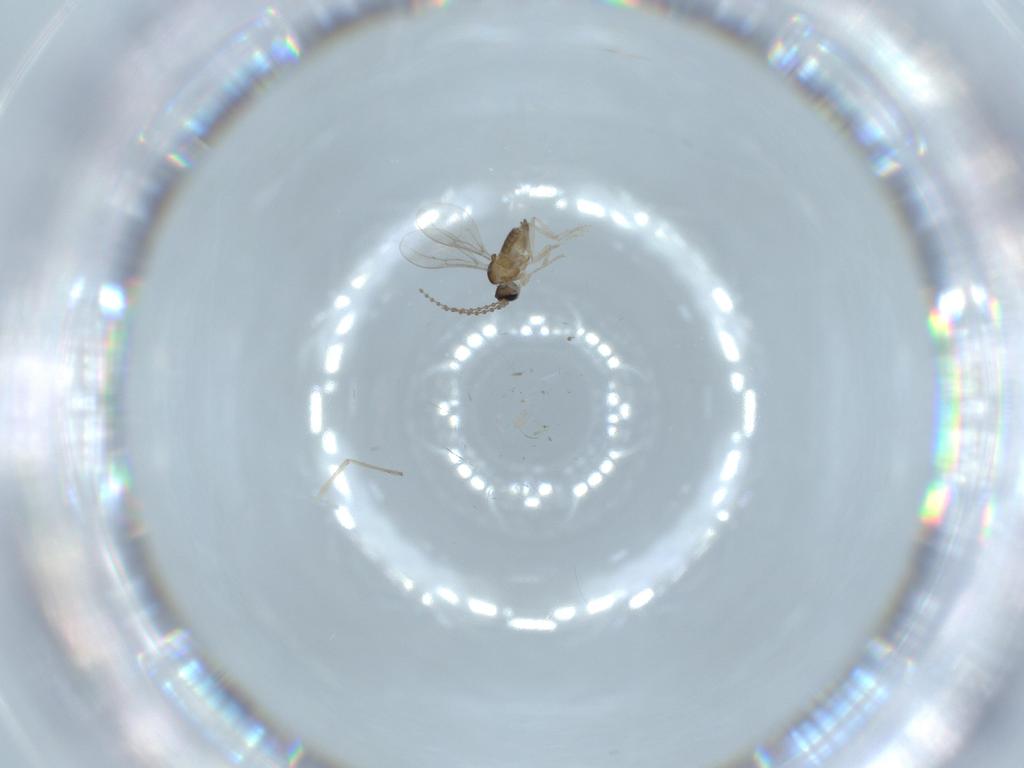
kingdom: Animalia
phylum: Arthropoda
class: Insecta
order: Diptera
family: Cecidomyiidae
